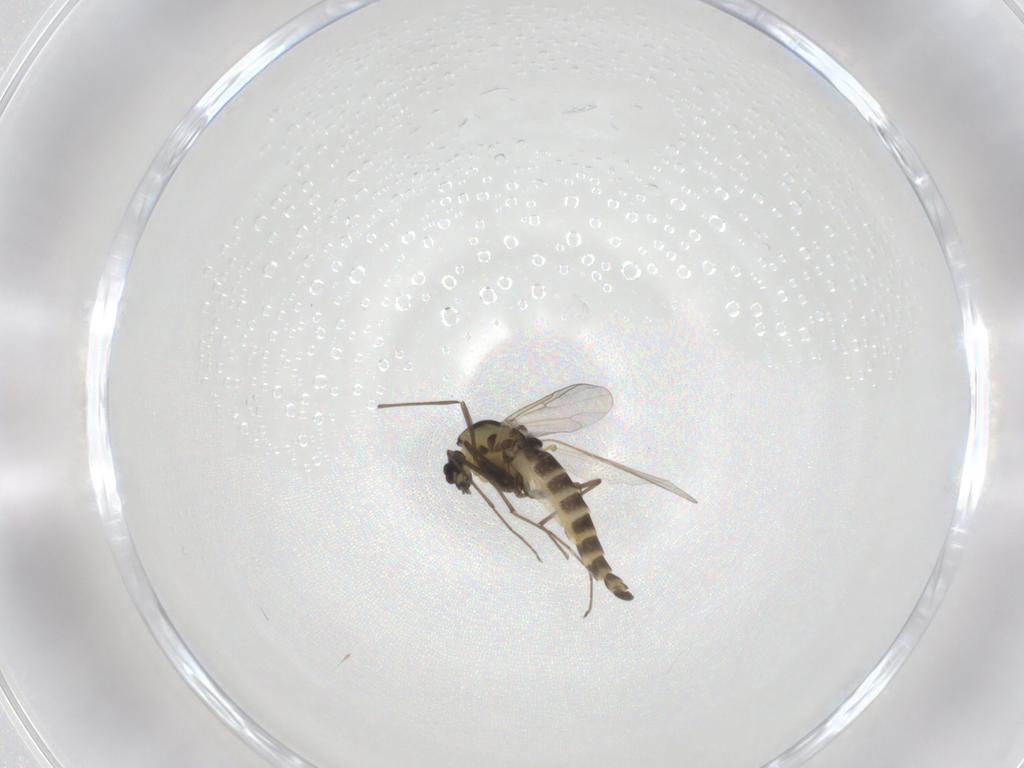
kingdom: Animalia
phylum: Arthropoda
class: Insecta
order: Diptera
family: Chironomidae
